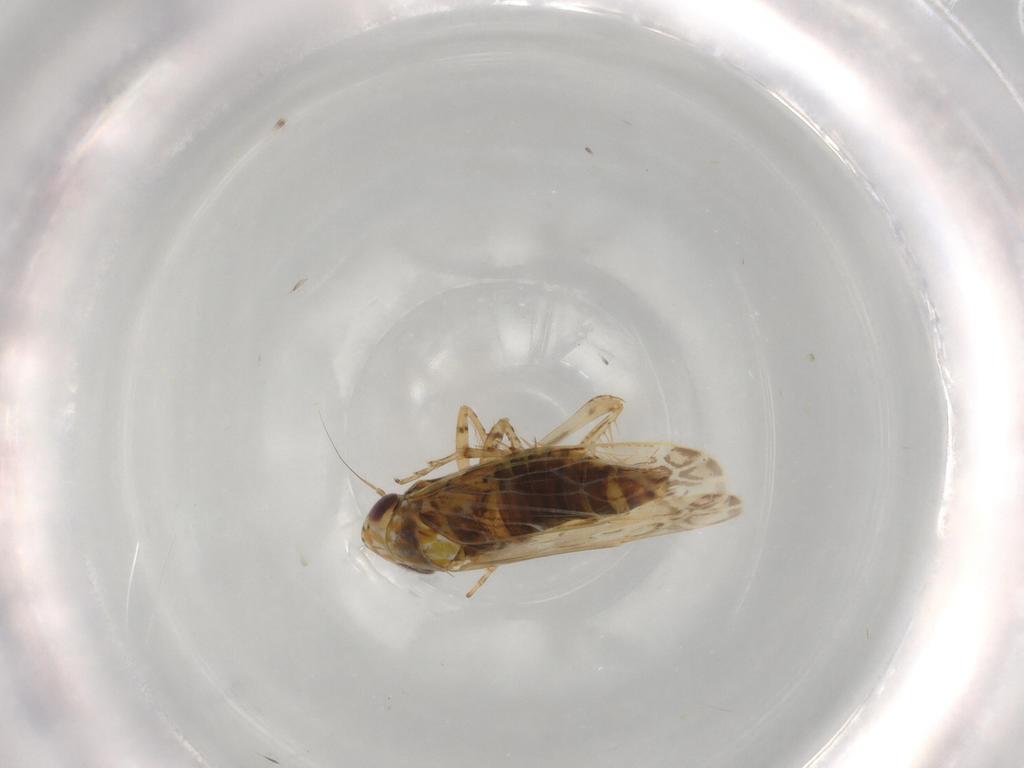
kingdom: Animalia
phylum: Arthropoda
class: Insecta
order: Hemiptera
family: Cicadellidae
